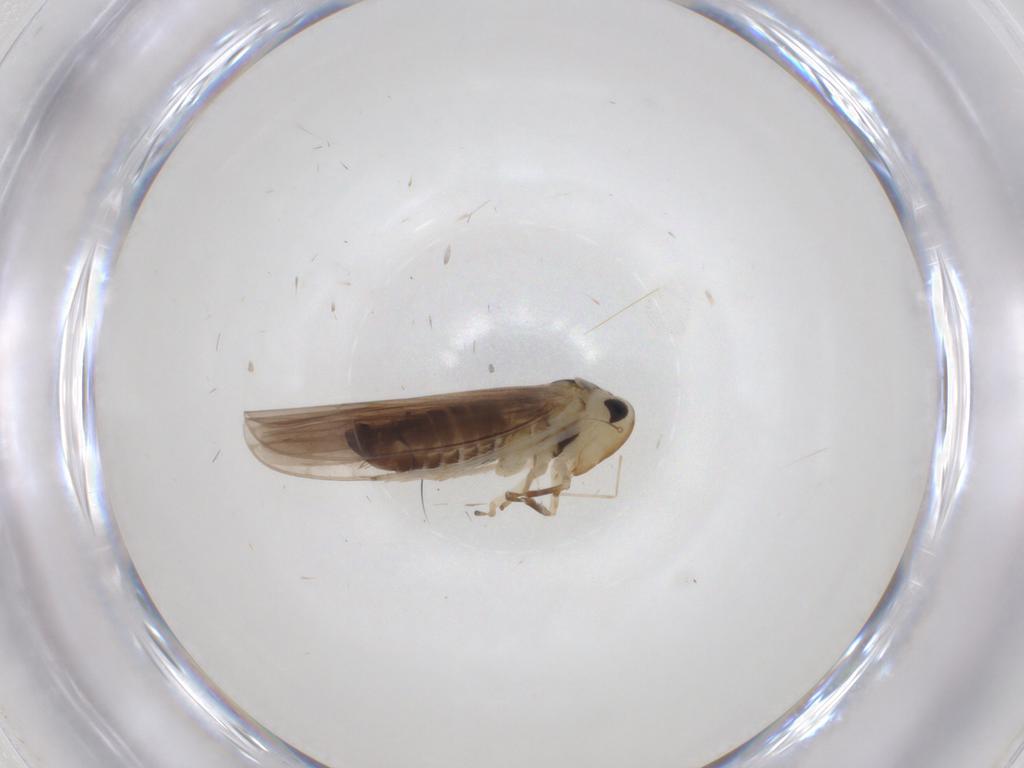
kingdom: Animalia
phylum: Arthropoda
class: Insecta
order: Hemiptera
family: Cicadellidae
